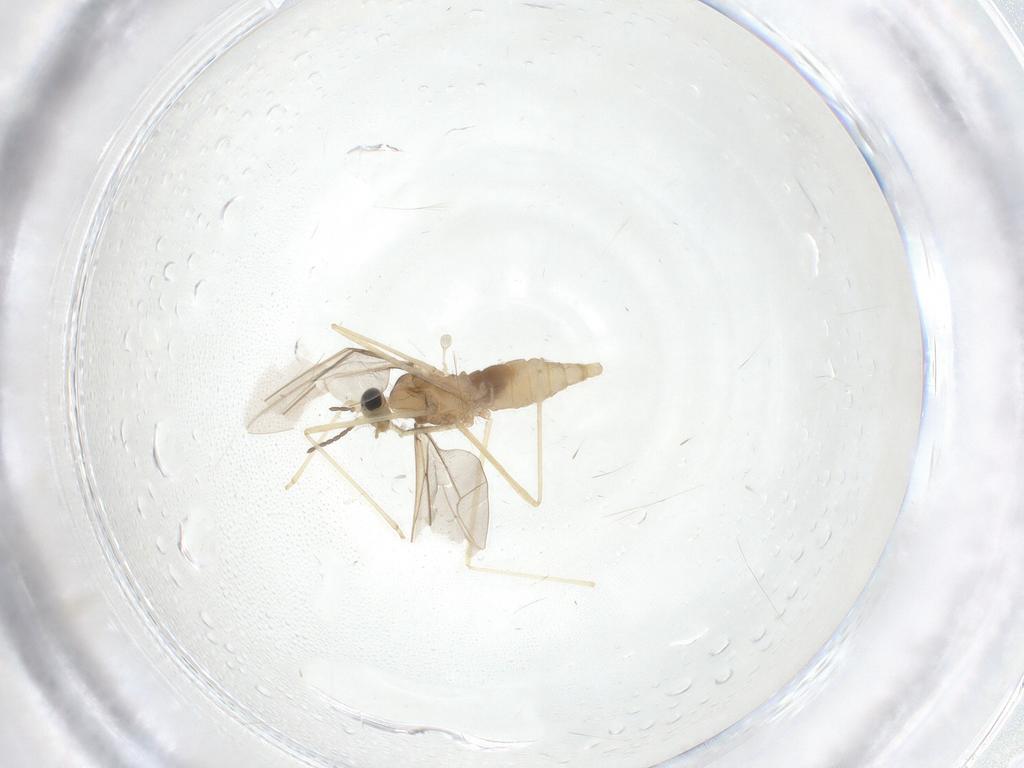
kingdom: Animalia
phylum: Arthropoda
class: Insecta
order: Diptera
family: Cecidomyiidae
